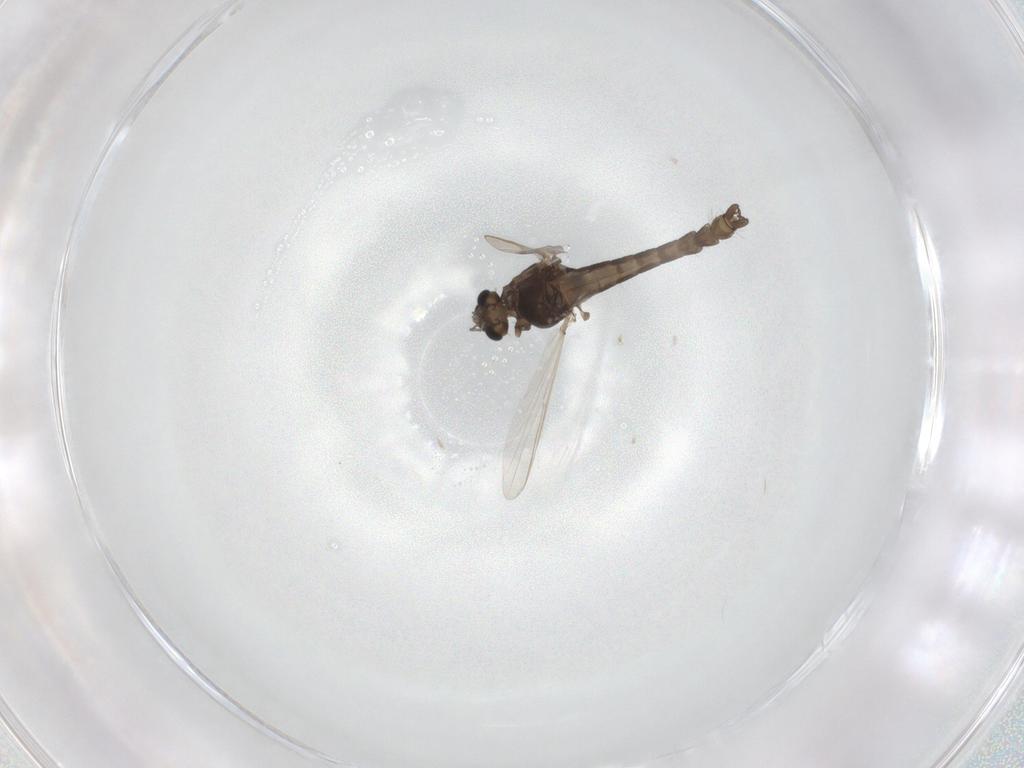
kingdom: Animalia
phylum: Arthropoda
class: Insecta
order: Diptera
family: Chironomidae
